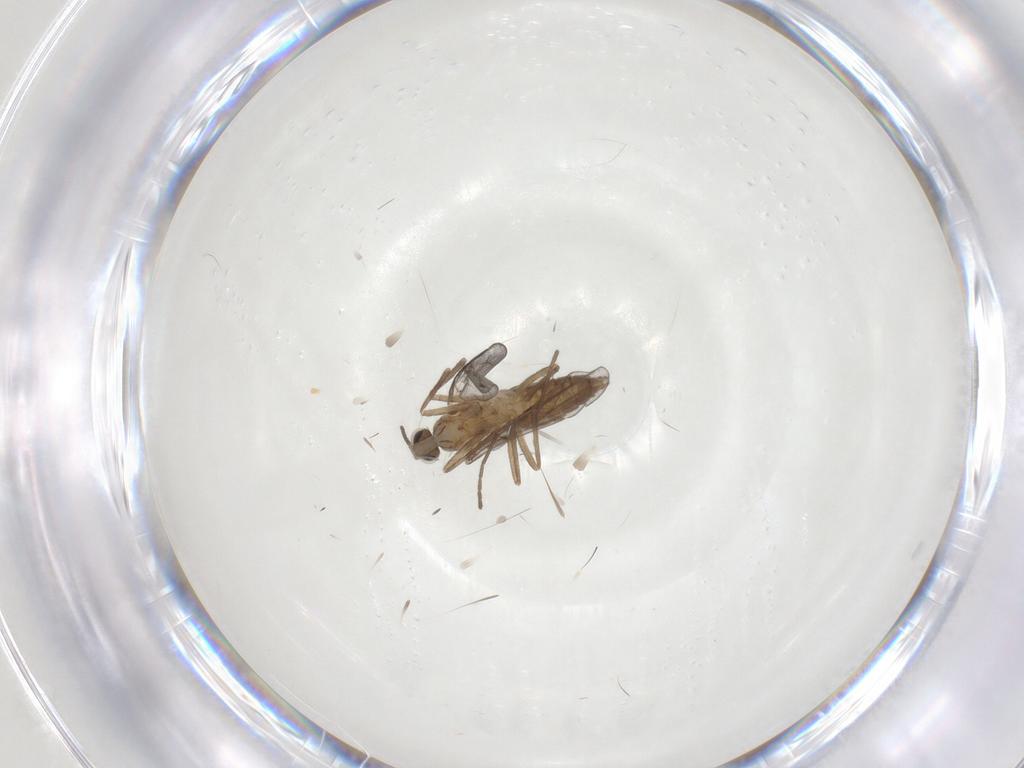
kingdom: Animalia
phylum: Arthropoda
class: Insecta
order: Diptera
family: Cecidomyiidae
